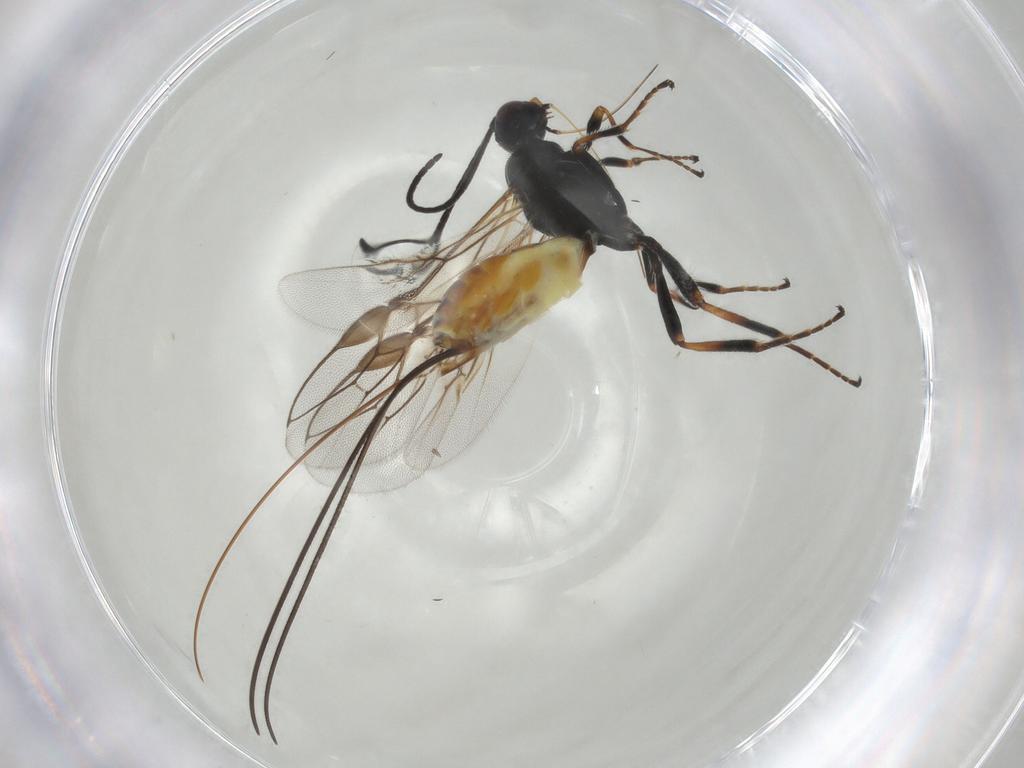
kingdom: Animalia
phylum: Arthropoda
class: Insecta
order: Hymenoptera
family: Braconidae
